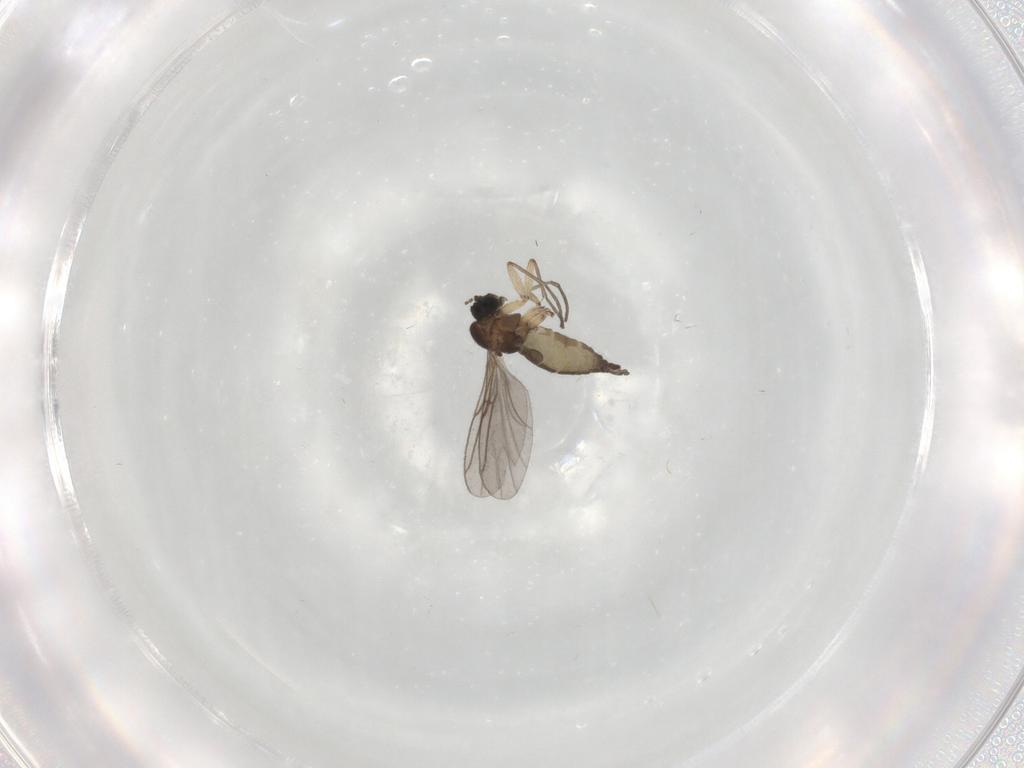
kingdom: Animalia
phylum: Arthropoda
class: Insecta
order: Diptera
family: Sciaridae
